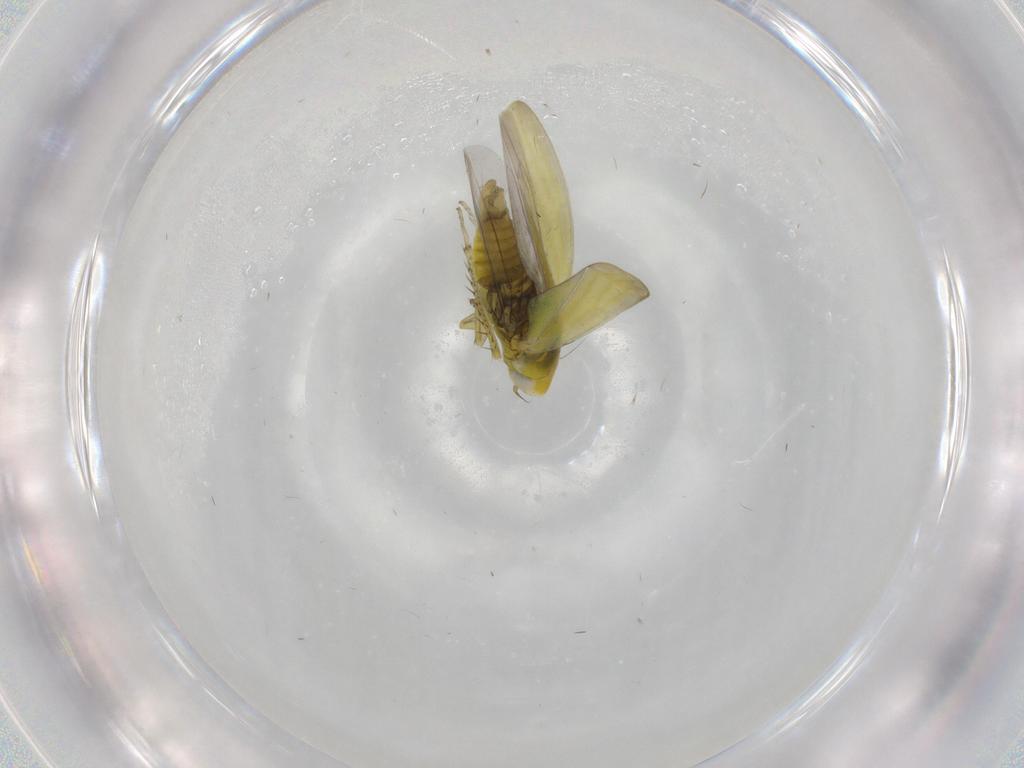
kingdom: Animalia
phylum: Arthropoda
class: Insecta
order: Hemiptera
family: Cicadellidae
